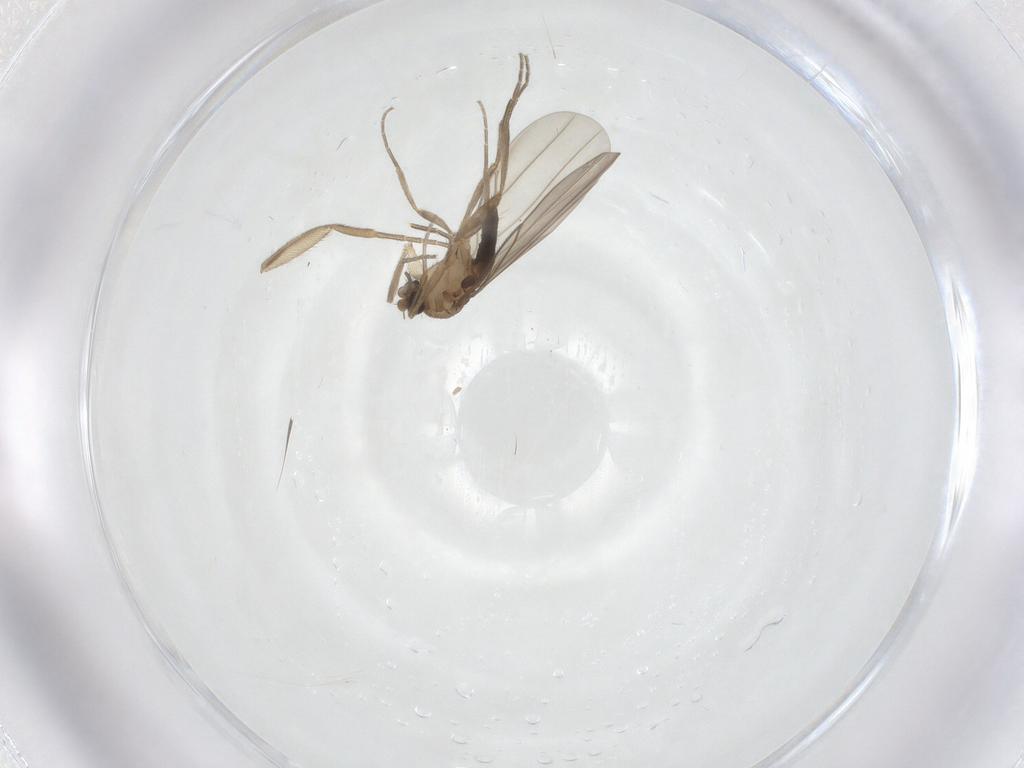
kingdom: Animalia
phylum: Arthropoda
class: Insecta
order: Diptera
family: Phoridae
